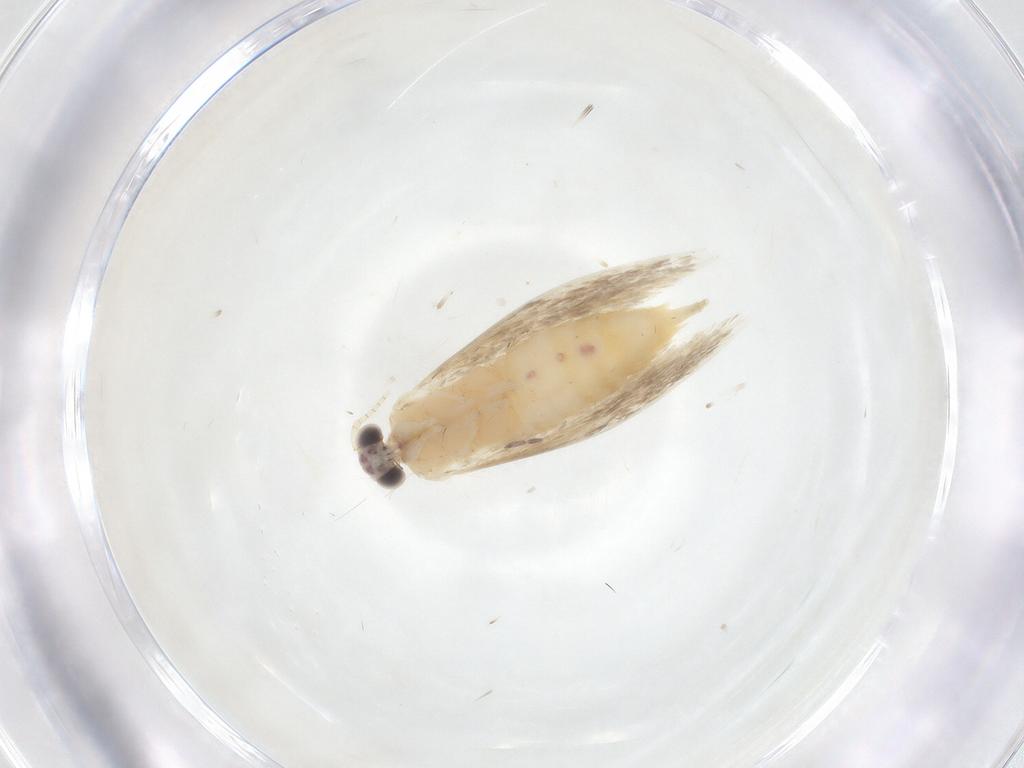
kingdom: Animalia
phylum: Arthropoda
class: Insecta
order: Lepidoptera
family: Tineidae
